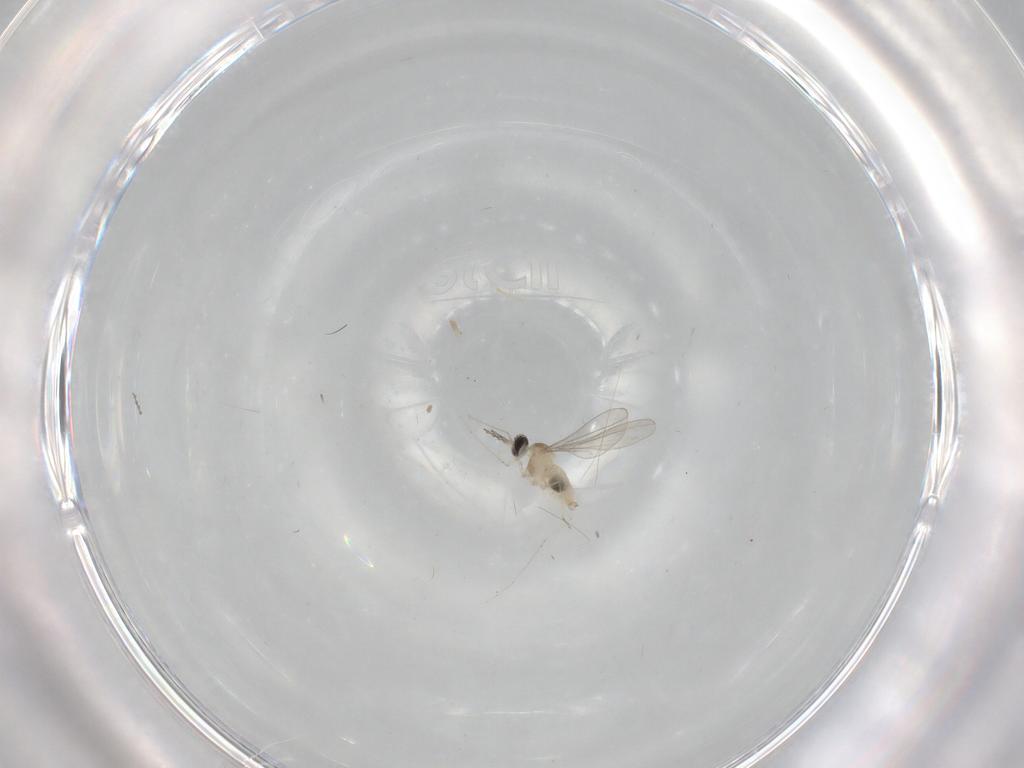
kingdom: Animalia
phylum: Arthropoda
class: Insecta
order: Diptera
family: Cecidomyiidae
